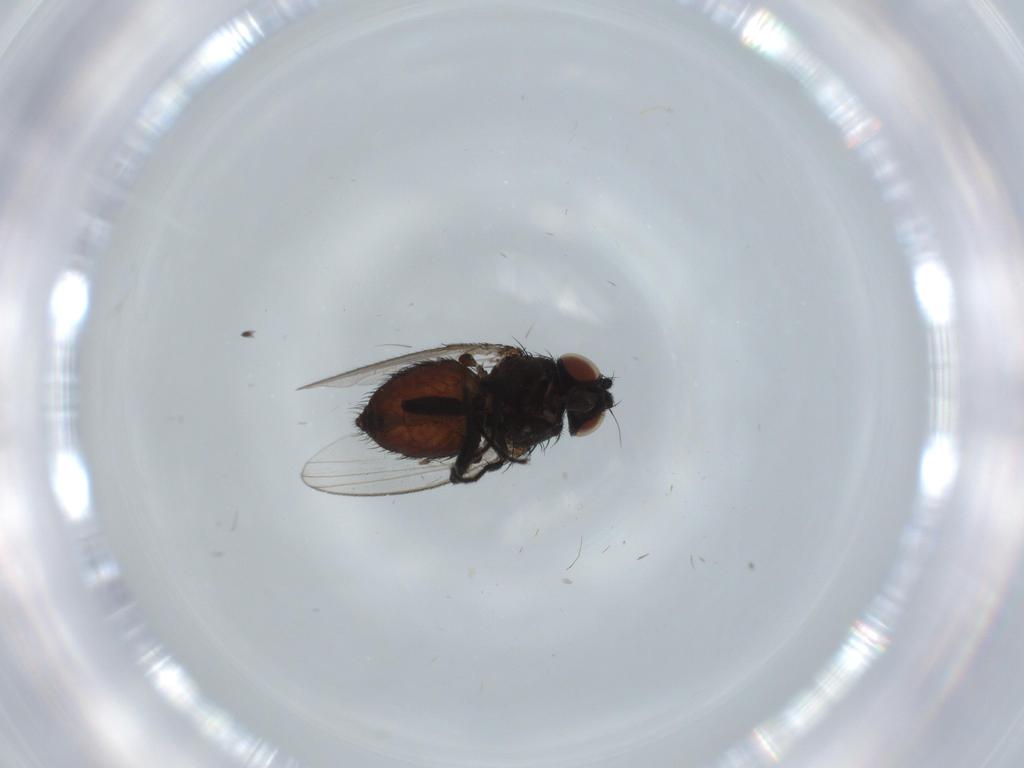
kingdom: Animalia
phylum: Arthropoda
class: Insecta
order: Diptera
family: Milichiidae
